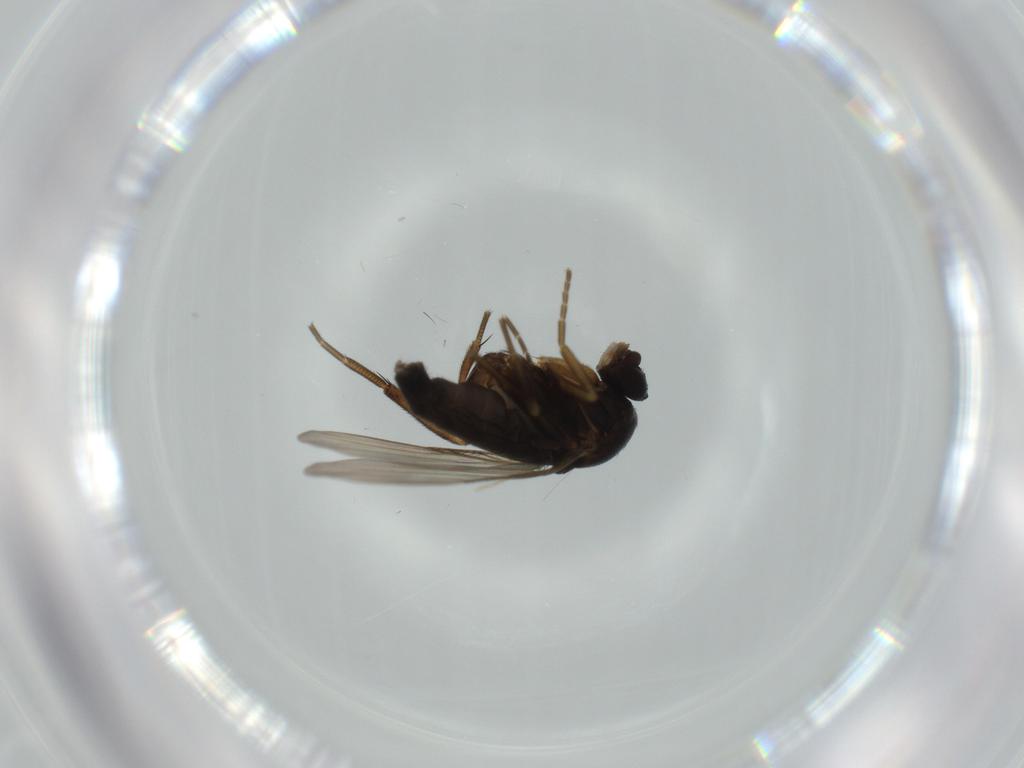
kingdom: Animalia
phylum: Arthropoda
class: Insecta
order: Diptera
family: Phoridae
